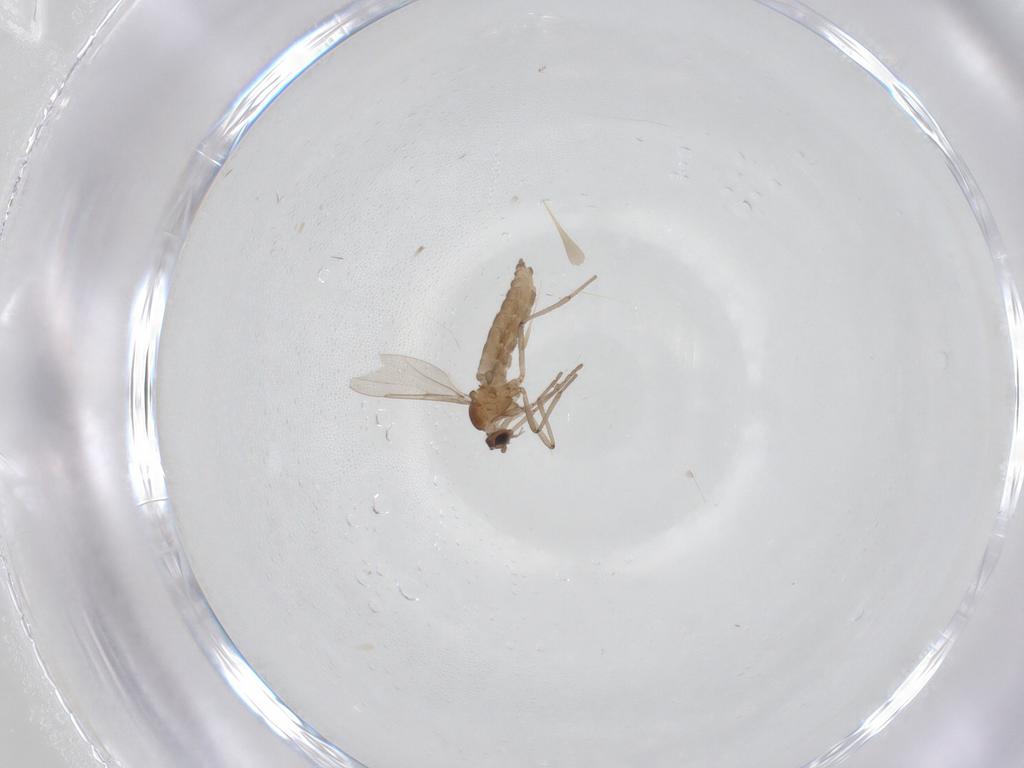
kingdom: Animalia
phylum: Arthropoda
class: Insecta
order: Diptera
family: Cecidomyiidae
